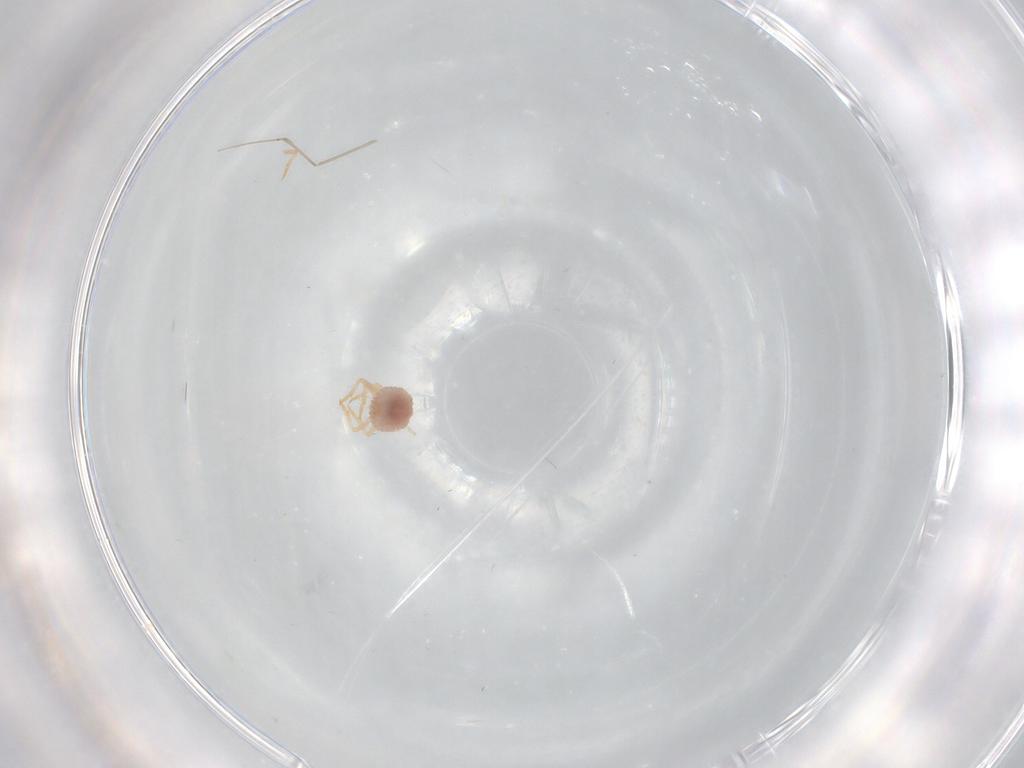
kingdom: Animalia
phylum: Arthropoda
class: Insecta
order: Hemiptera
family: Coccoidea_incertae_sedis
